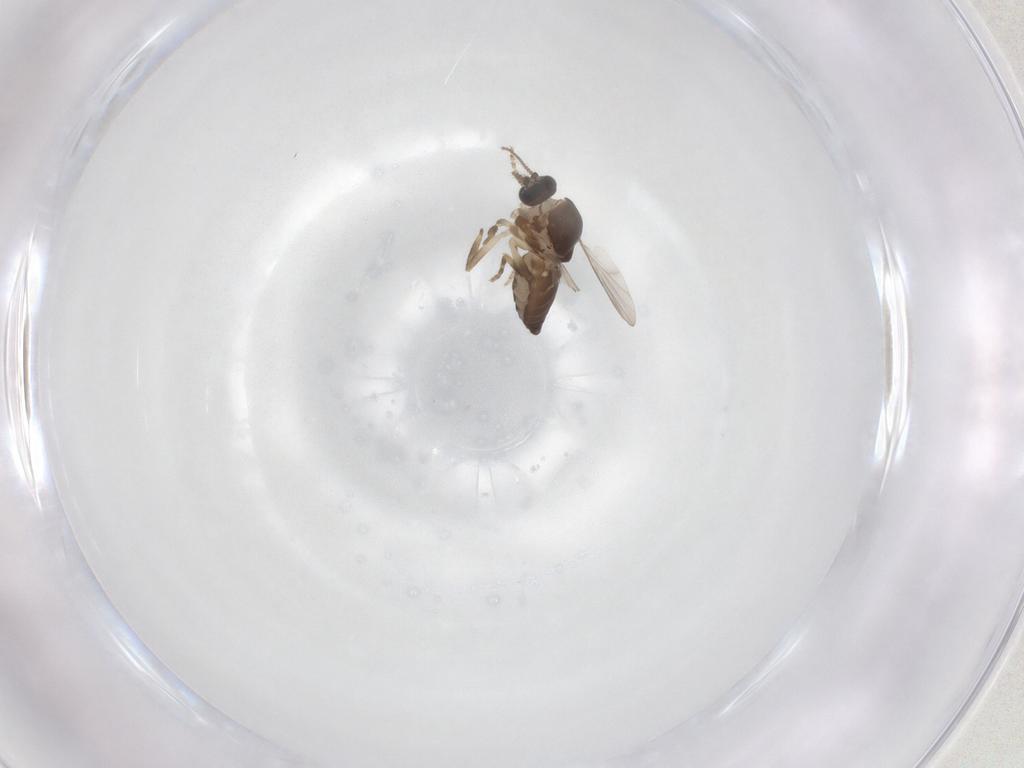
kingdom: Animalia
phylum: Arthropoda
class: Insecta
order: Diptera
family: Ceratopogonidae
